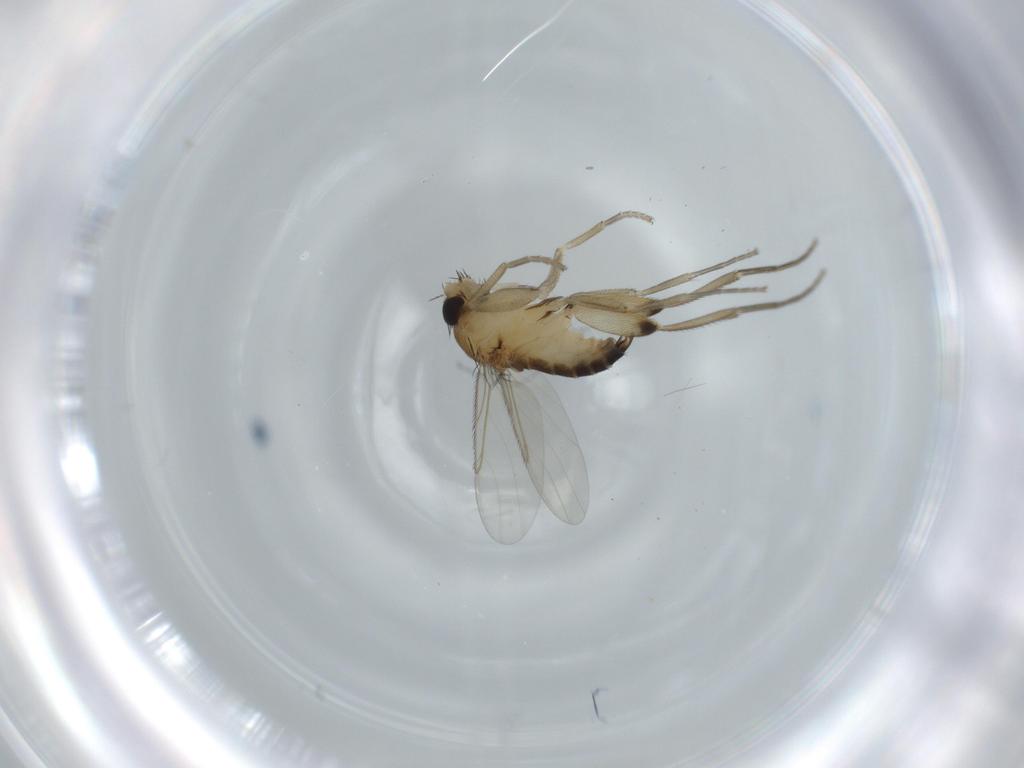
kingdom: Animalia
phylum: Arthropoda
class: Insecta
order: Diptera
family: Phoridae
